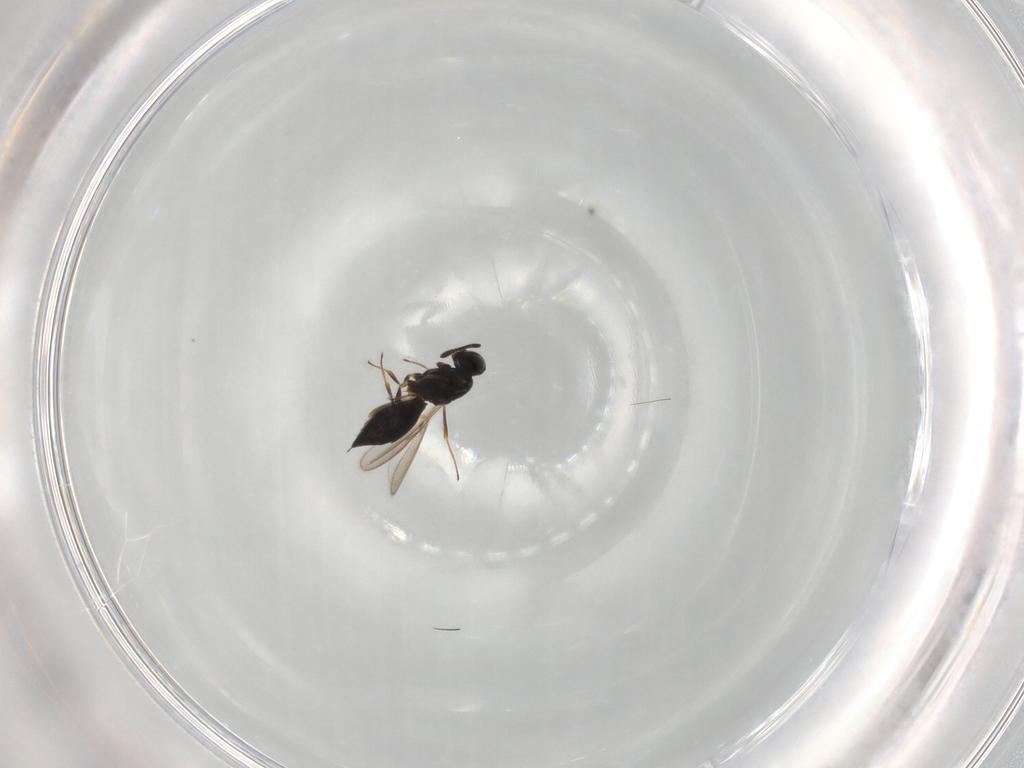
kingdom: Animalia
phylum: Arthropoda
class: Insecta
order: Hymenoptera
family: Scelionidae
